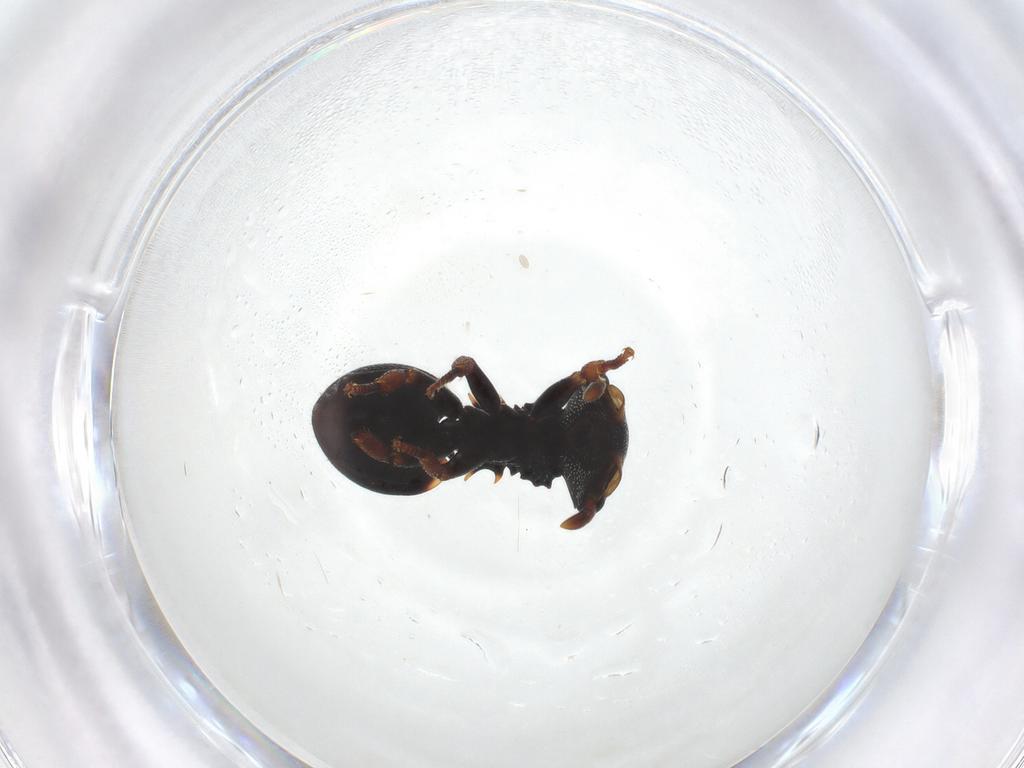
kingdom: Animalia
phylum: Arthropoda
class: Insecta
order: Hymenoptera
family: Formicidae
